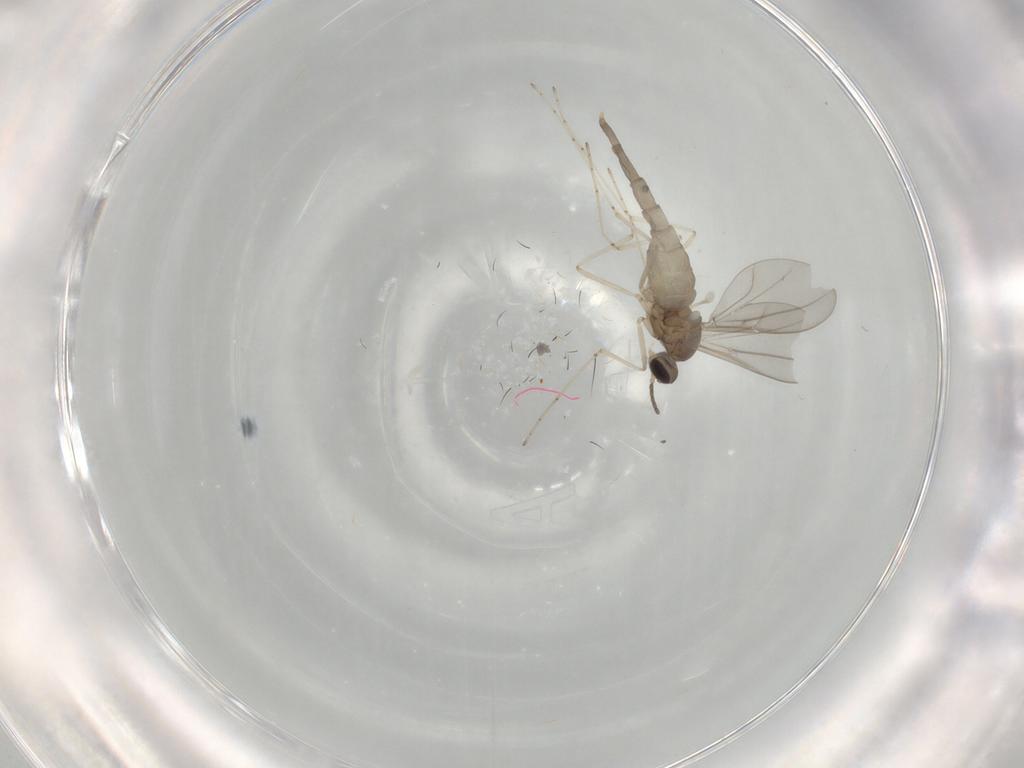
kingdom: Animalia
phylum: Arthropoda
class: Insecta
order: Diptera
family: Cecidomyiidae
